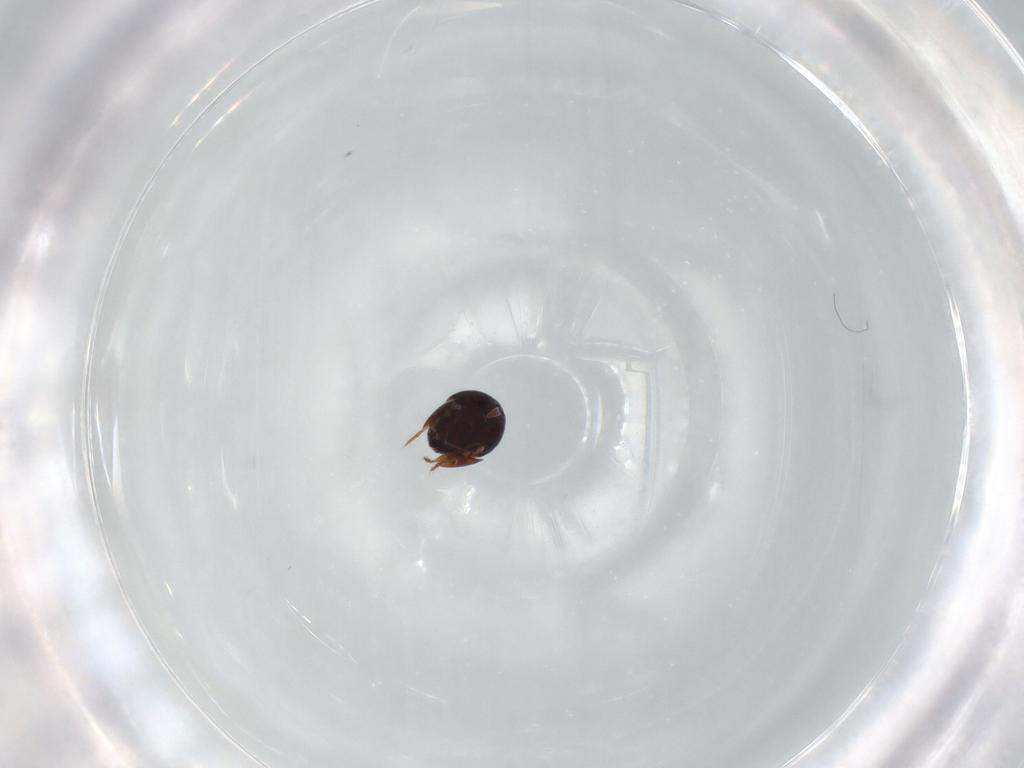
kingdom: Animalia
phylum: Arthropoda
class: Arachnida
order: Sarcoptiformes
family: Ceratozetidae
